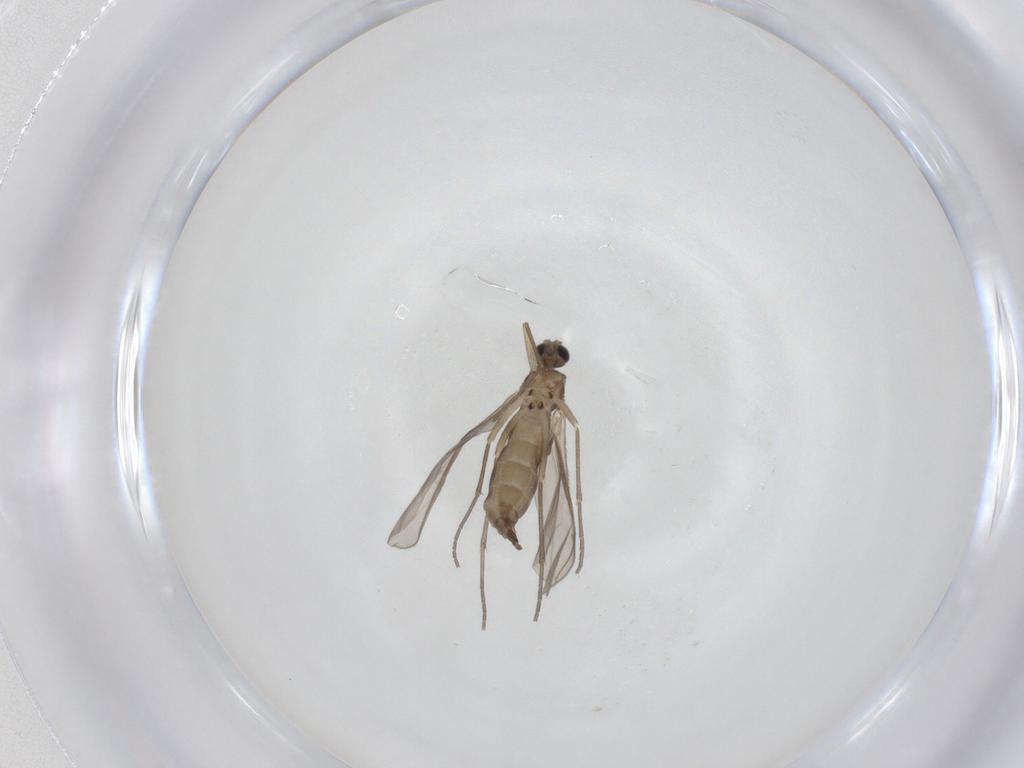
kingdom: Animalia
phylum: Arthropoda
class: Insecta
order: Diptera
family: Sciaridae
